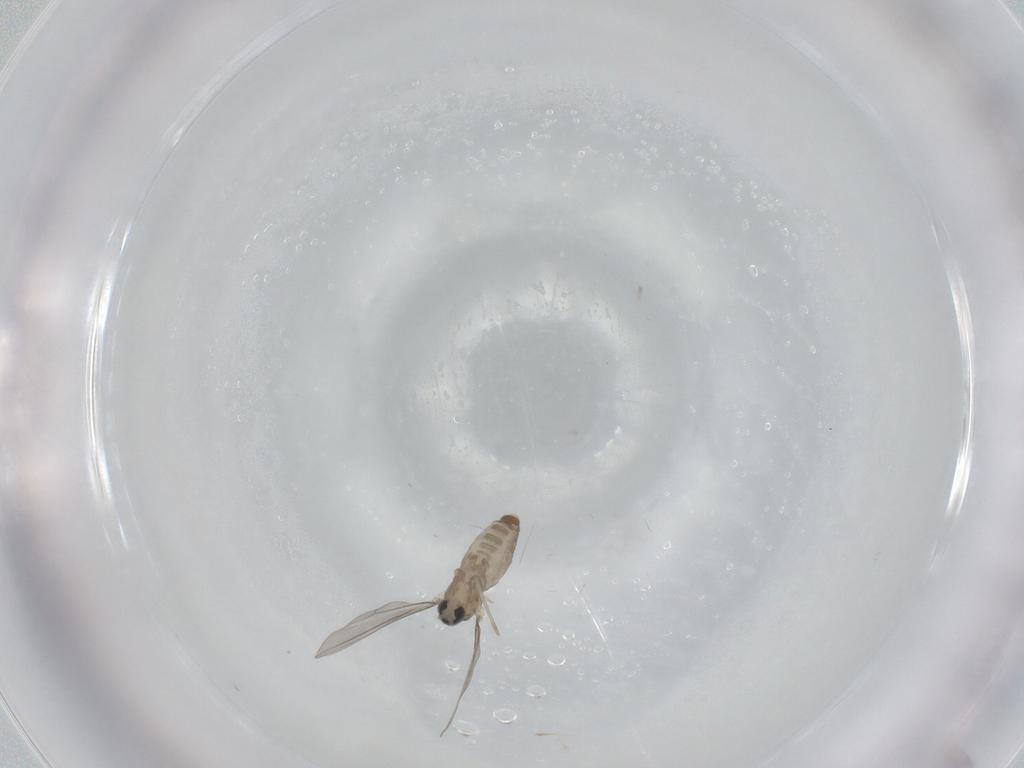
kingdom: Animalia
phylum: Arthropoda
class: Insecta
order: Diptera
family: Cecidomyiidae
